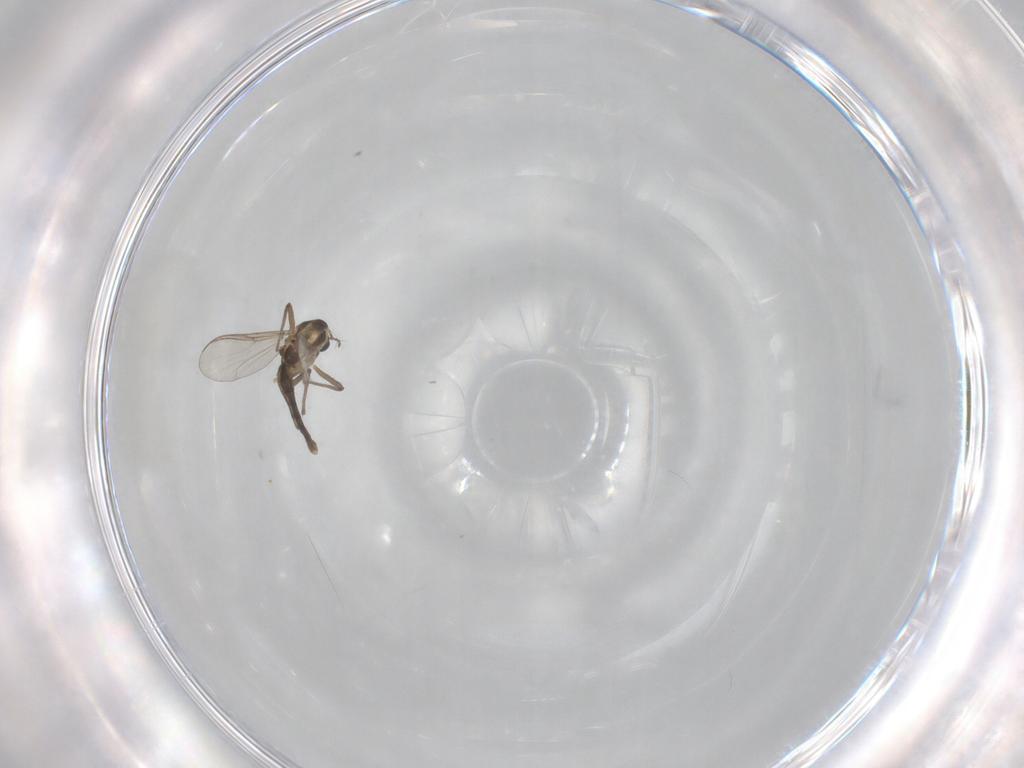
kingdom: Animalia
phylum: Arthropoda
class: Insecta
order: Diptera
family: Chironomidae
